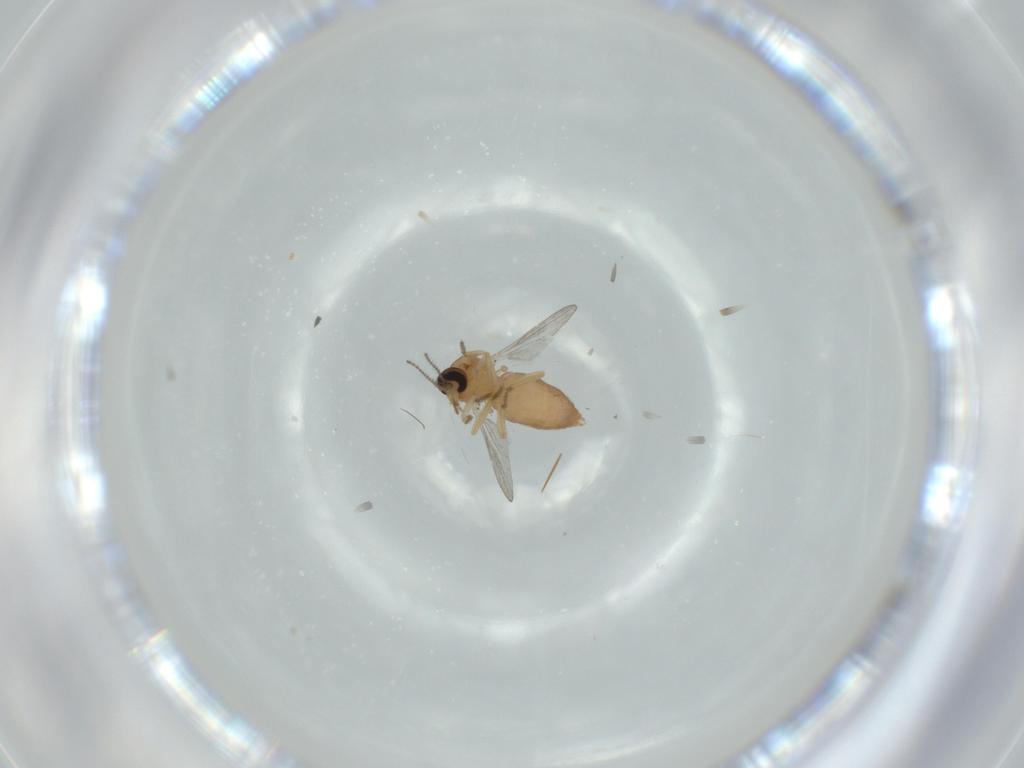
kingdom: Animalia
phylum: Arthropoda
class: Insecta
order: Diptera
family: Ceratopogonidae
